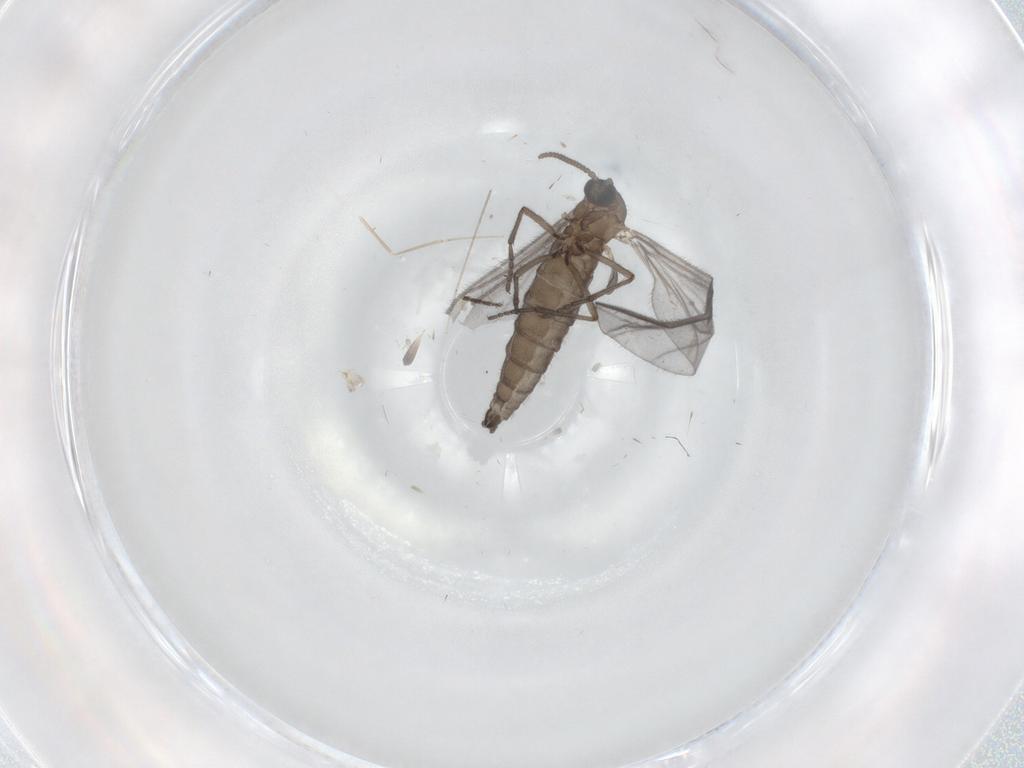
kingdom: Animalia
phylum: Arthropoda
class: Insecta
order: Diptera
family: Sciaridae
